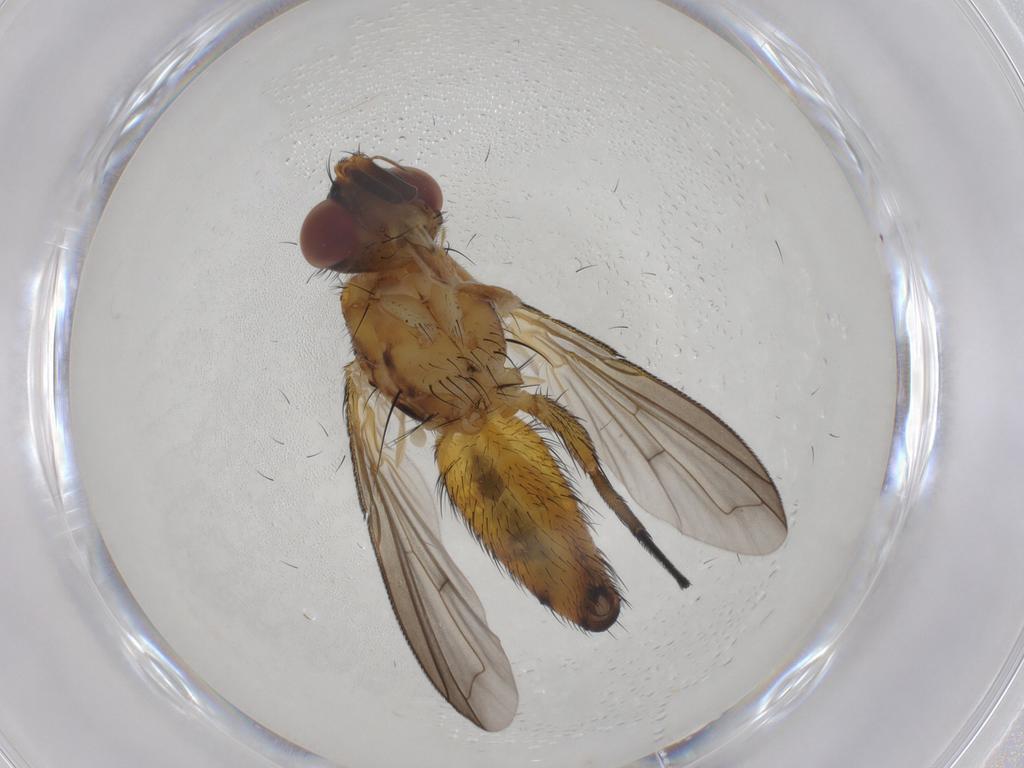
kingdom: Animalia
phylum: Arthropoda
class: Insecta
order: Diptera
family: Tachinidae
